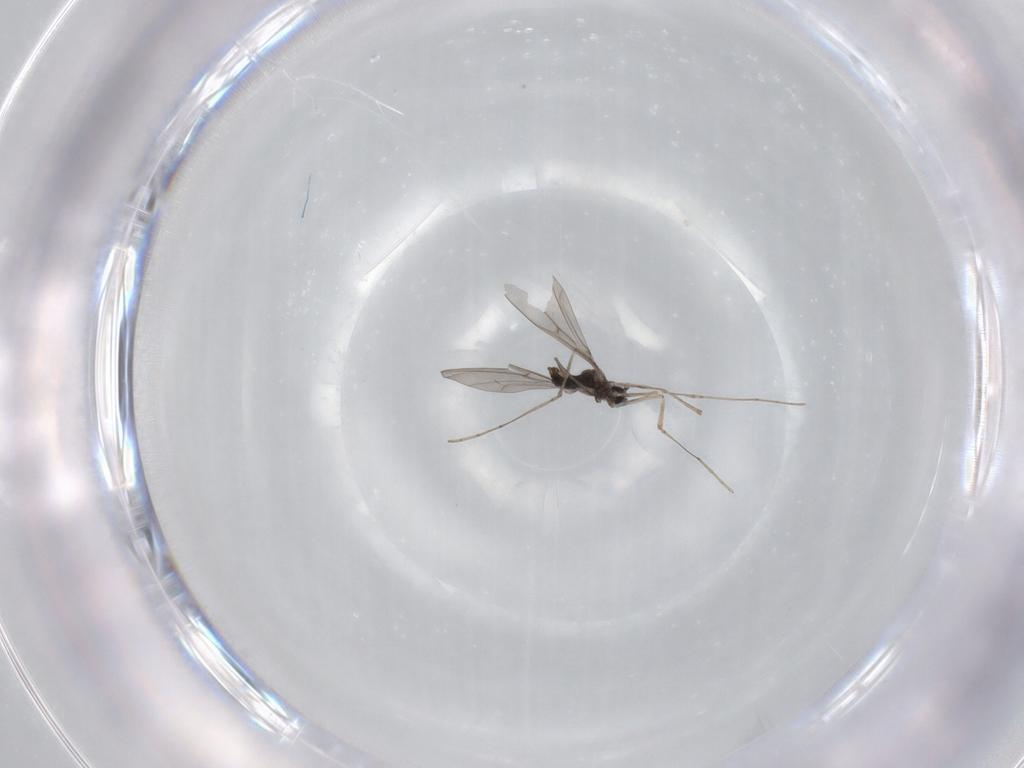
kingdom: Animalia
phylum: Arthropoda
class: Insecta
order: Diptera
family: Cecidomyiidae
